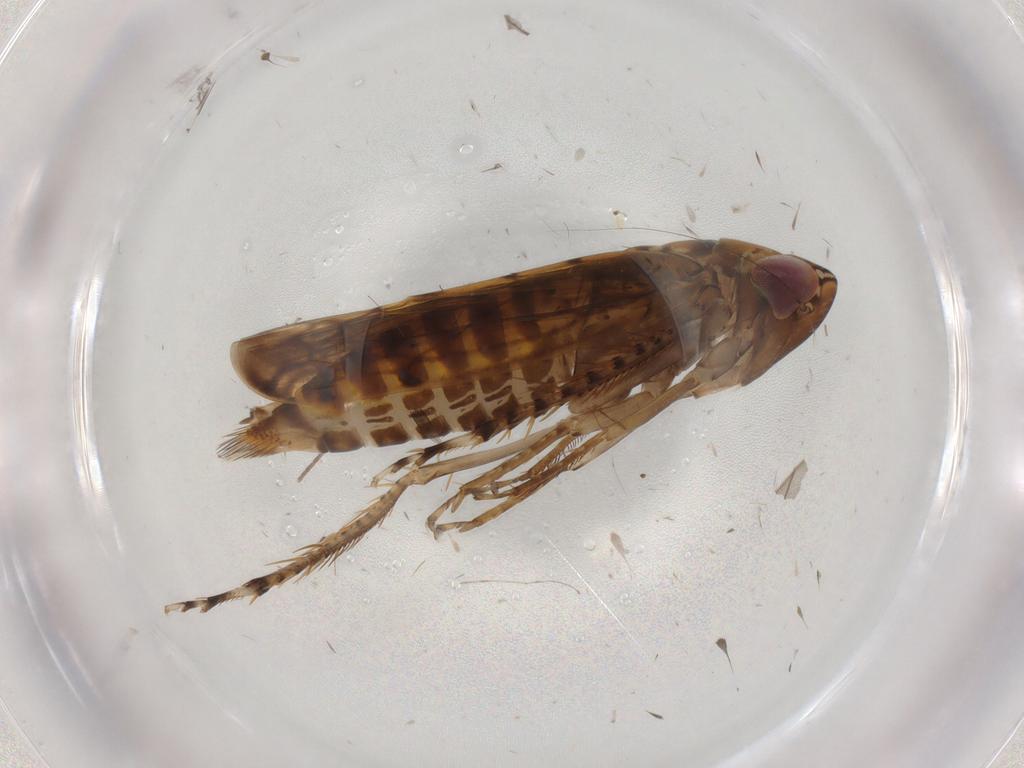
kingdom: Animalia
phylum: Arthropoda
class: Insecta
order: Hemiptera
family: Cicadellidae
